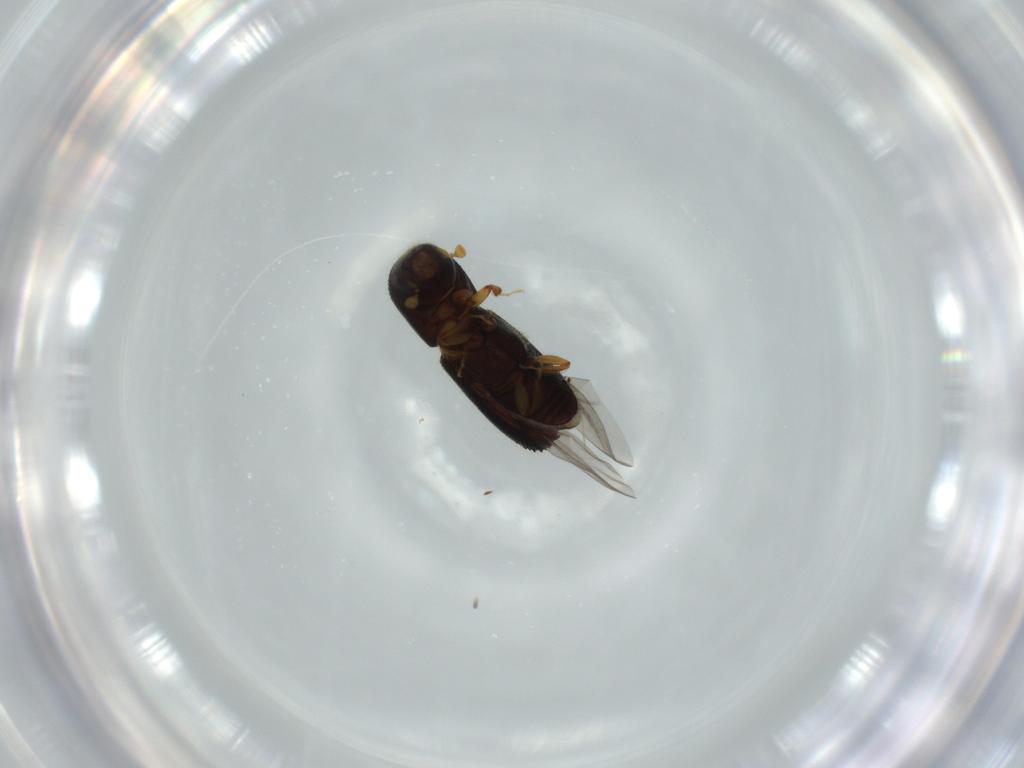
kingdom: Animalia
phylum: Arthropoda
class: Insecta
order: Coleoptera
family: Curculionidae
